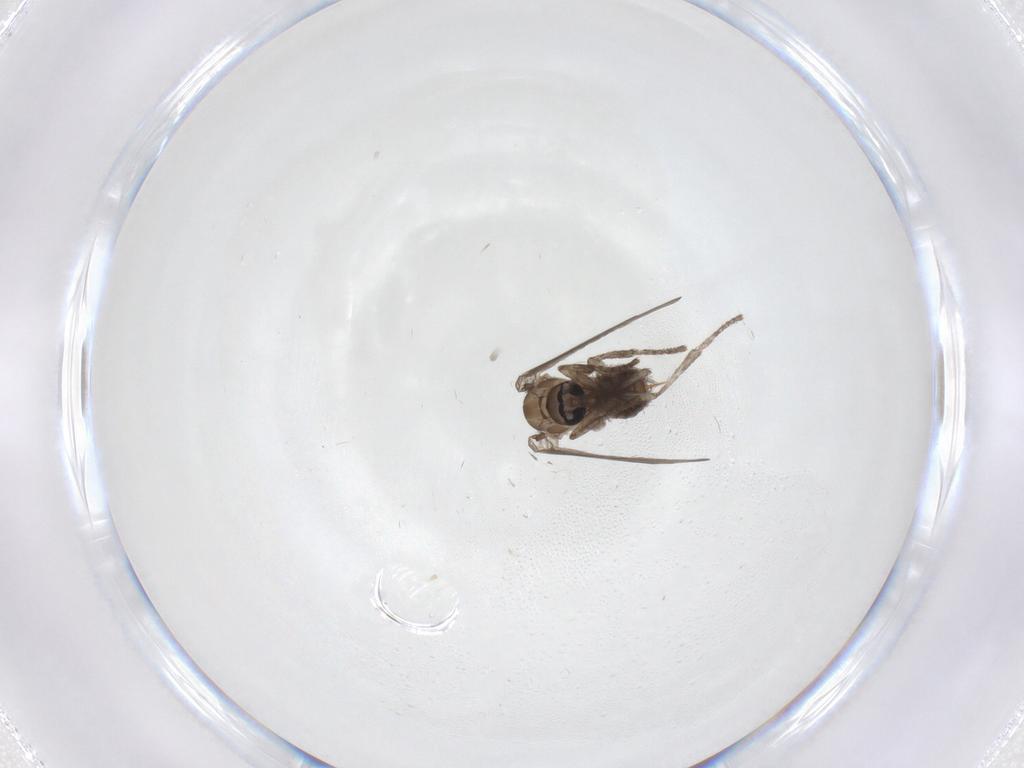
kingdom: Animalia
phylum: Arthropoda
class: Insecta
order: Diptera
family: Psychodidae
